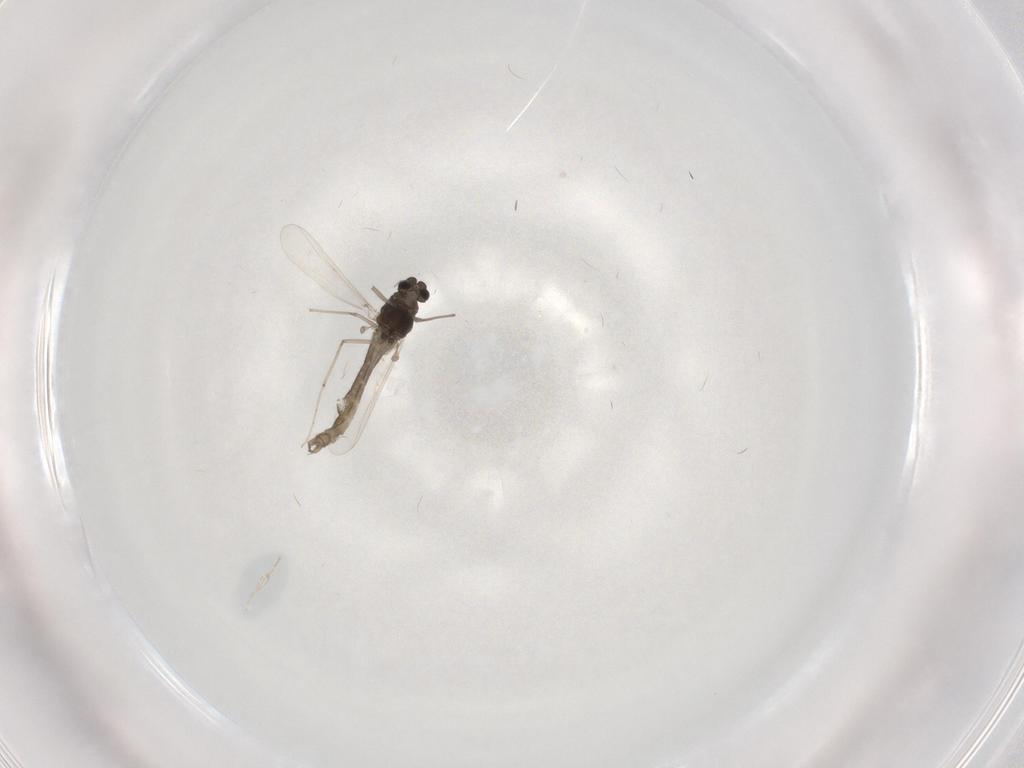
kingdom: Animalia
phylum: Arthropoda
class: Insecta
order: Diptera
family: Chironomidae
